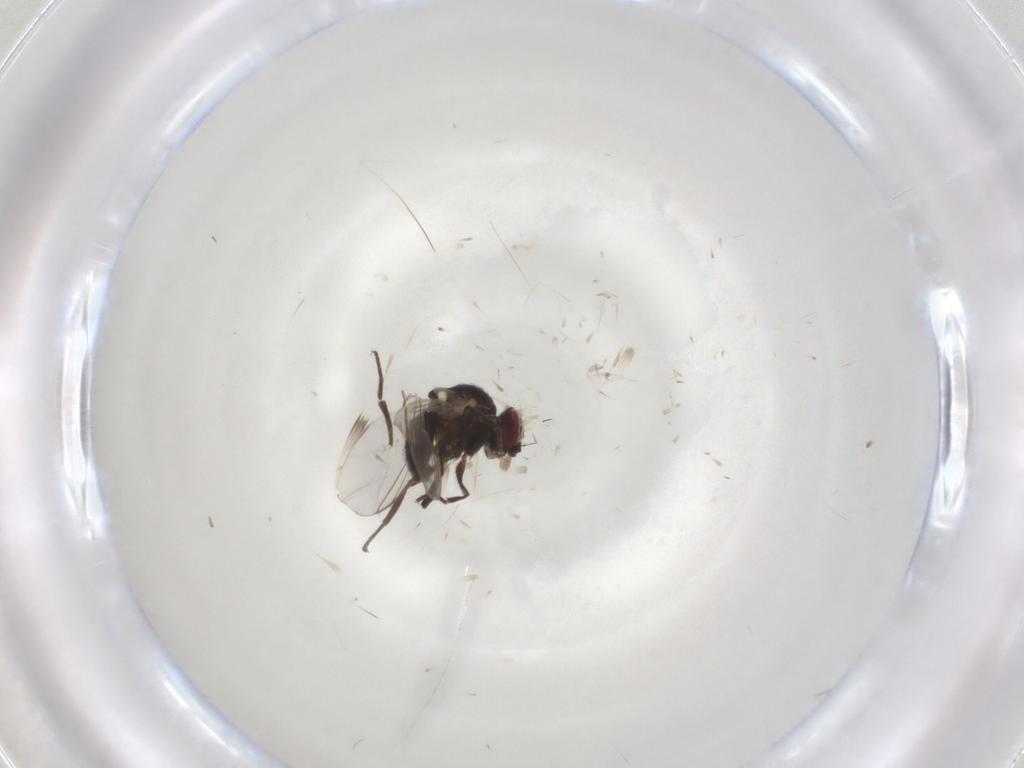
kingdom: Animalia
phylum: Arthropoda
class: Insecta
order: Diptera
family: Agromyzidae
